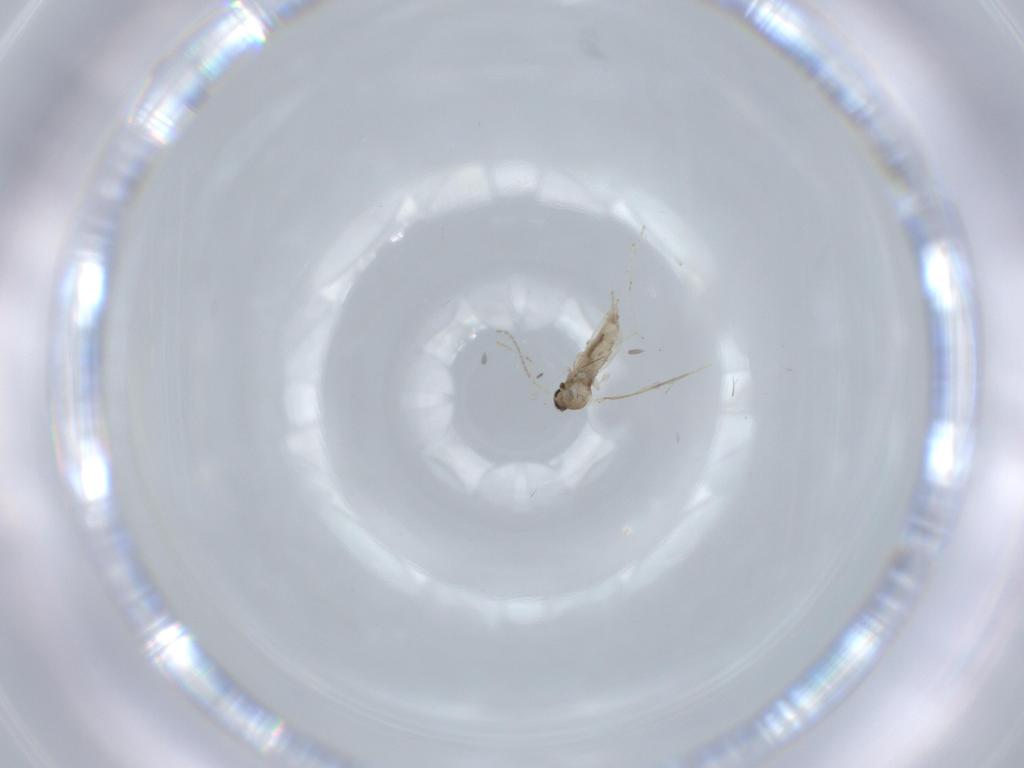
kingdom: Animalia
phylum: Arthropoda
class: Insecta
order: Diptera
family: Cecidomyiidae
